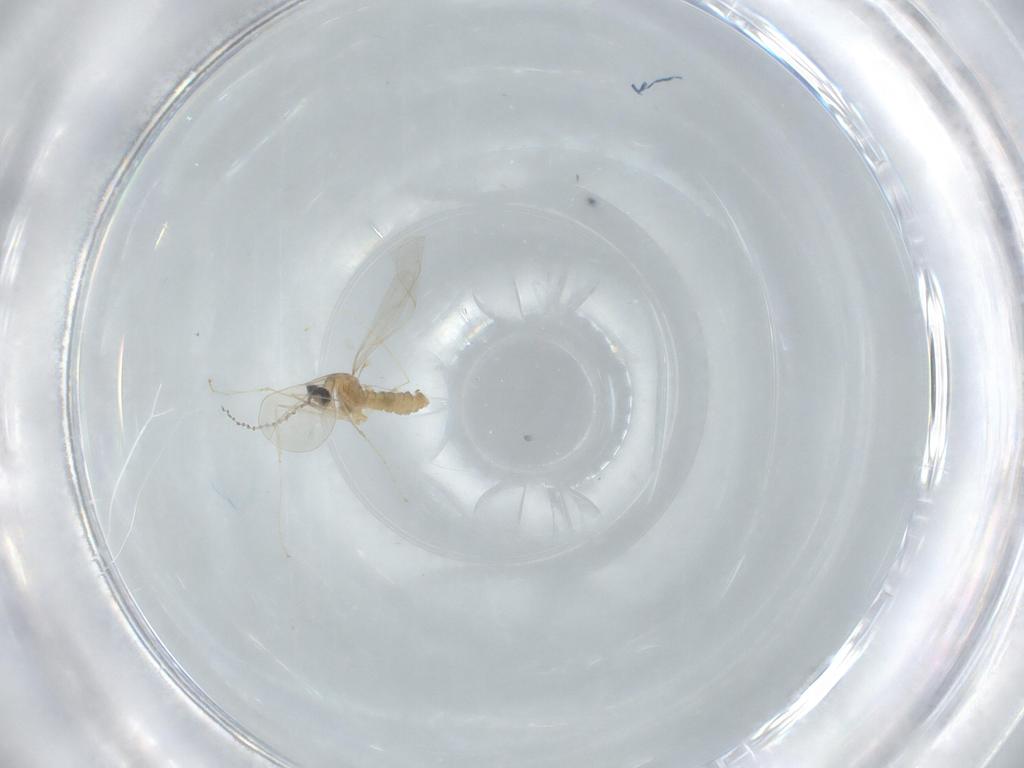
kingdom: Animalia
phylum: Arthropoda
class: Insecta
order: Diptera
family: Cecidomyiidae
